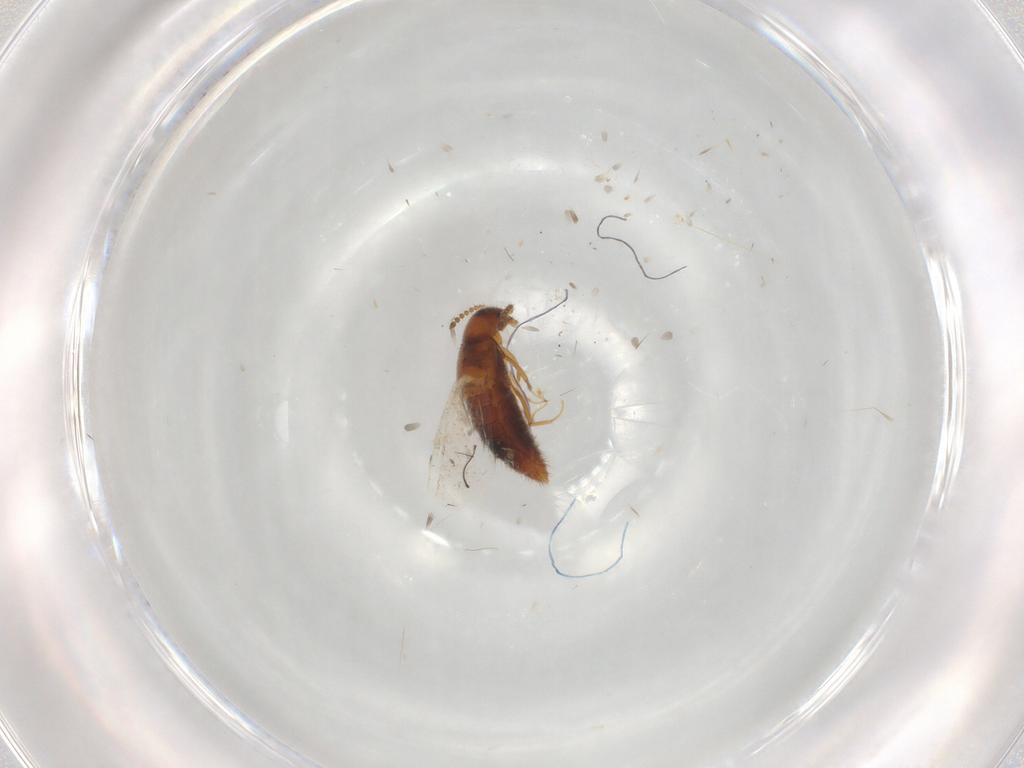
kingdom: Animalia
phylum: Arthropoda
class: Insecta
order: Coleoptera
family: Staphylinidae
